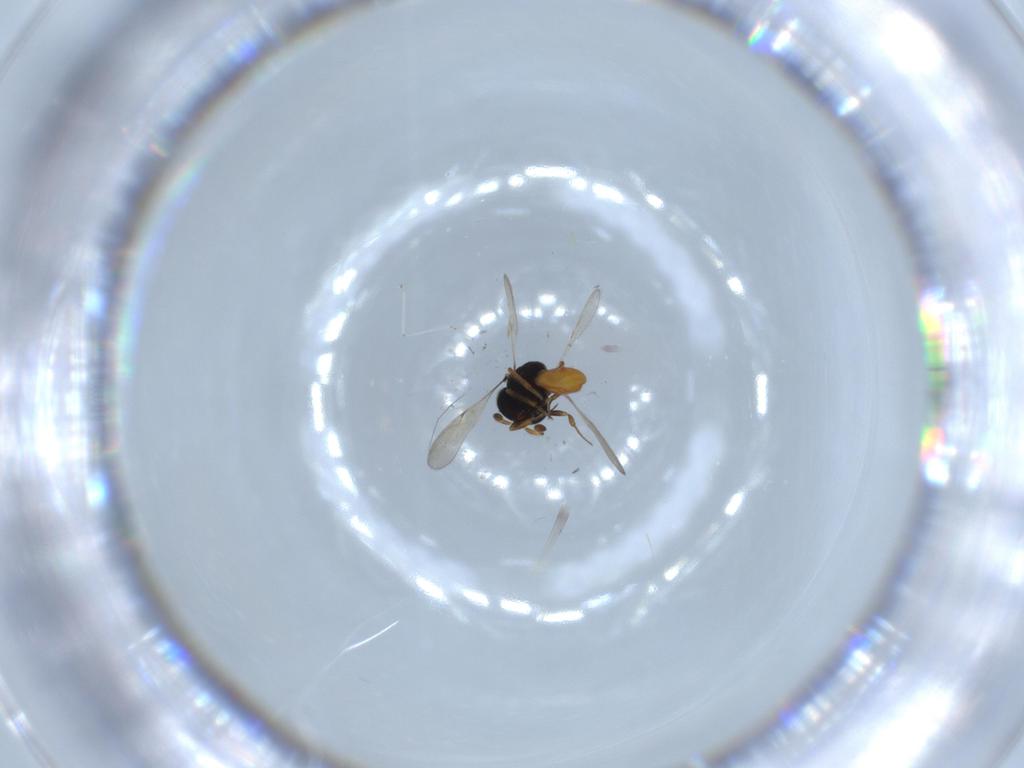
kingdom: Animalia
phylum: Arthropoda
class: Insecta
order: Hymenoptera
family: Scelionidae
